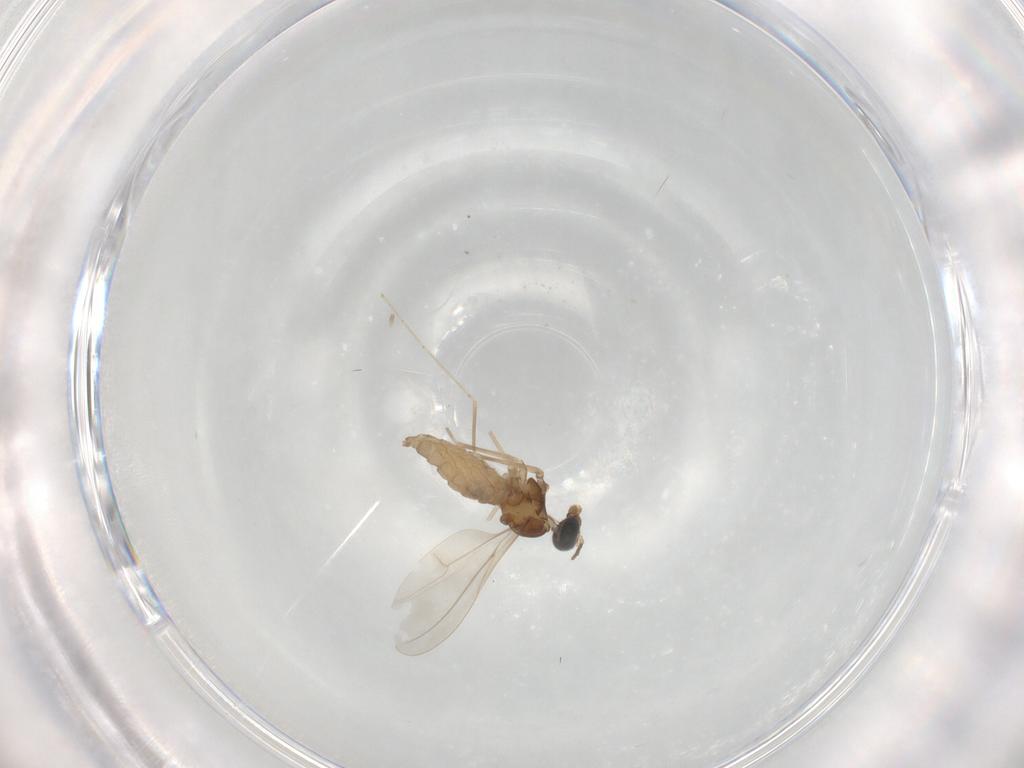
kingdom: Animalia
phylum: Arthropoda
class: Insecta
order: Diptera
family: Cecidomyiidae
